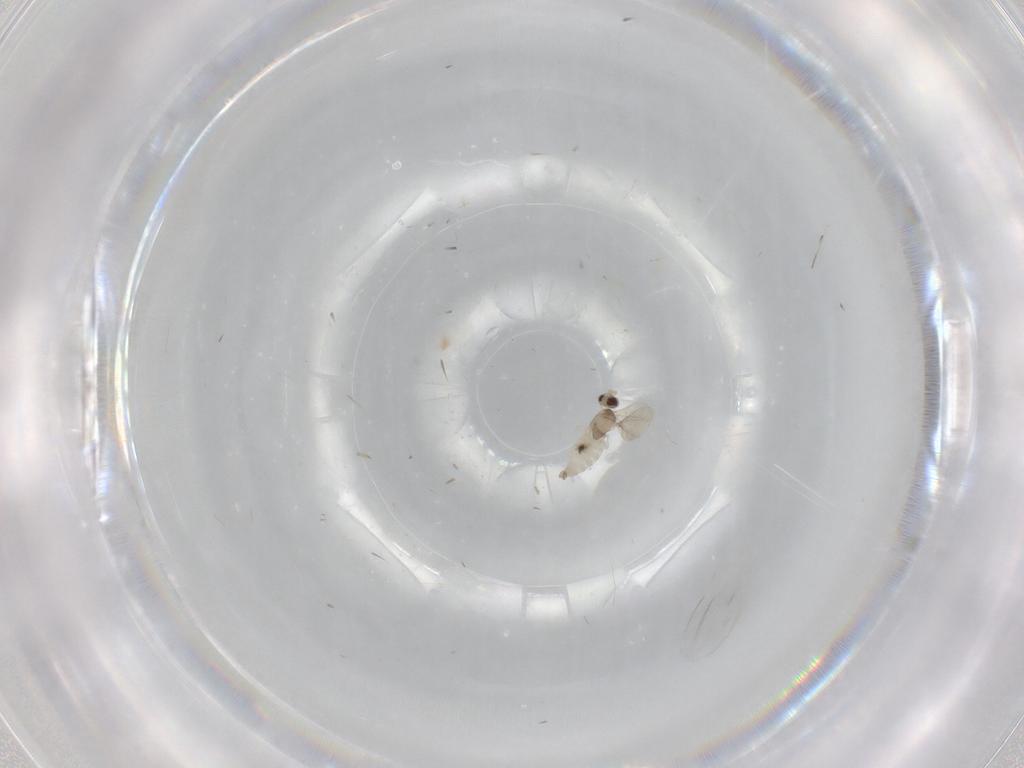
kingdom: Animalia
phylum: Arthropoda
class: Insecta
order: Diptera
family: Cecidomyiidae
